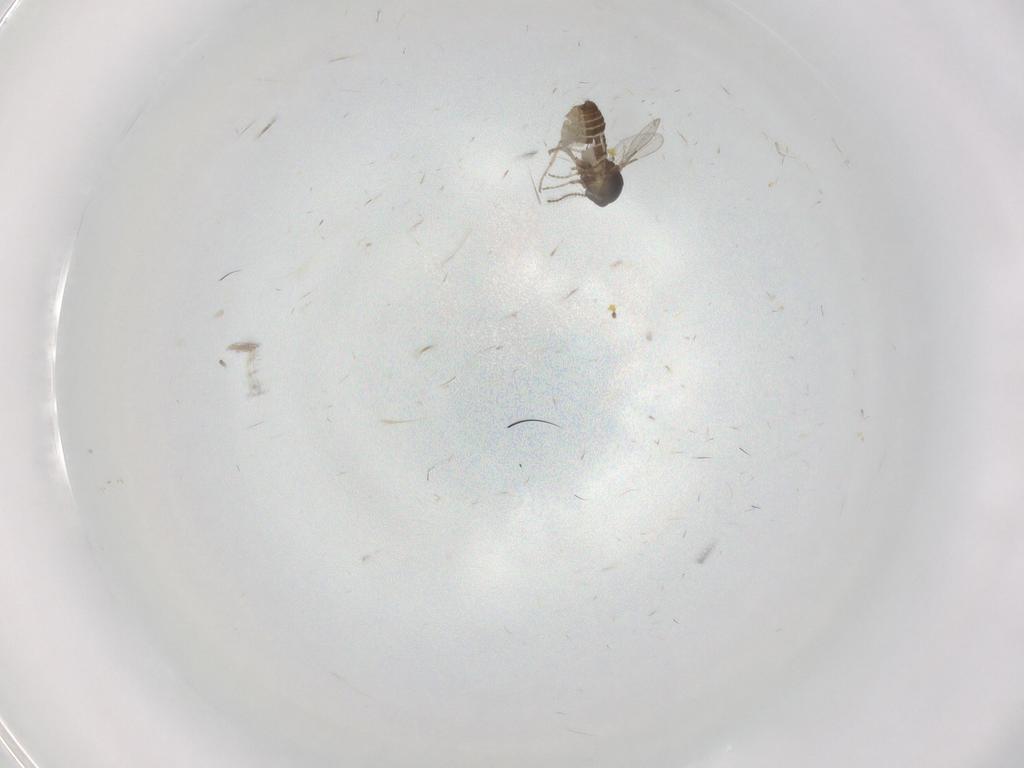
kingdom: Animalia
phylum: Arthropoda
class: Insecta
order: Diptera
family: Ceratopogonidae
